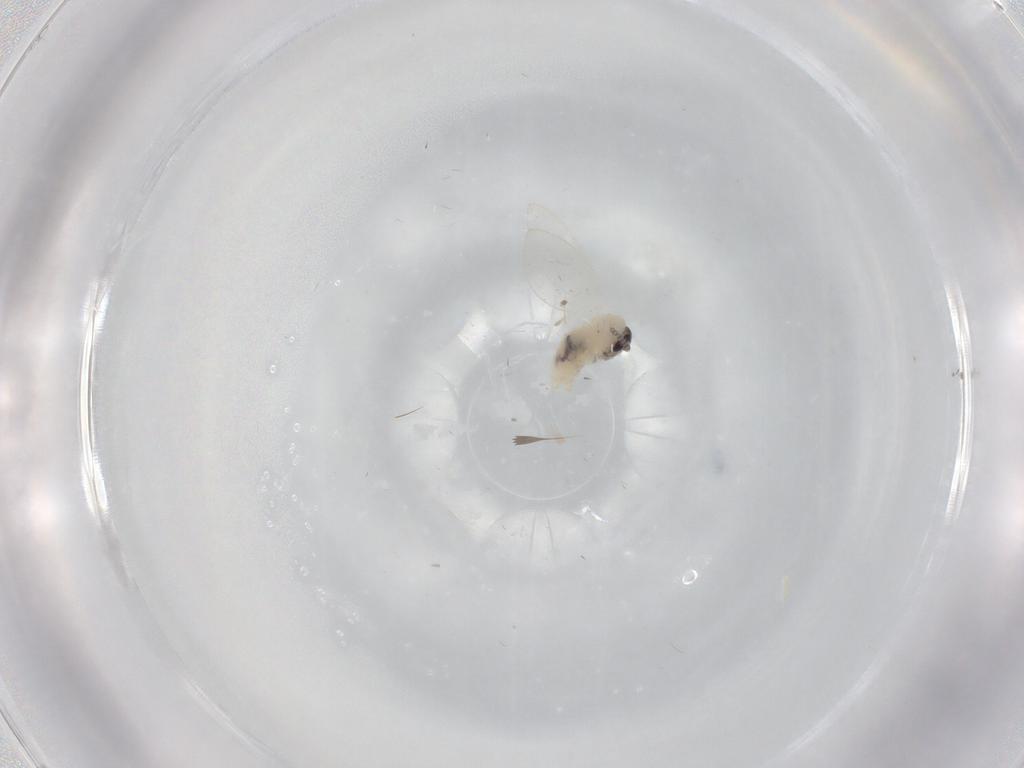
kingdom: Animalia
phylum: Arthropoda
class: Insecta
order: Diptera
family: Psychodidae
